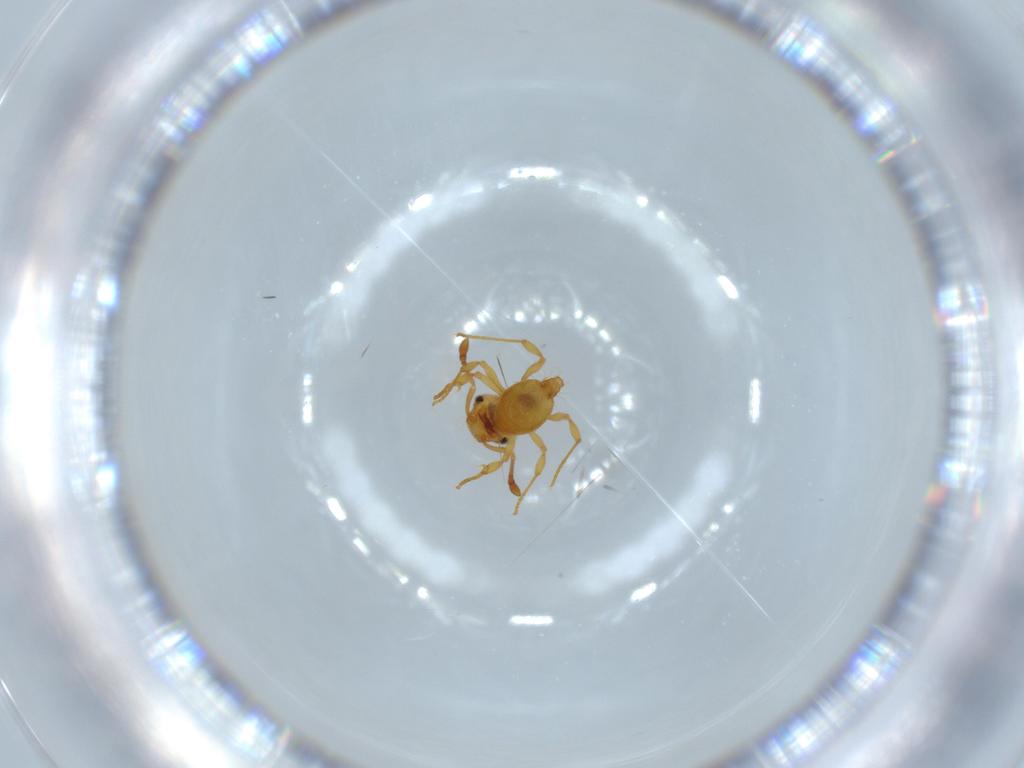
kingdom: Animalia
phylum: Arthropoda
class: Insecta
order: Hymenoptera
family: Formicidae
